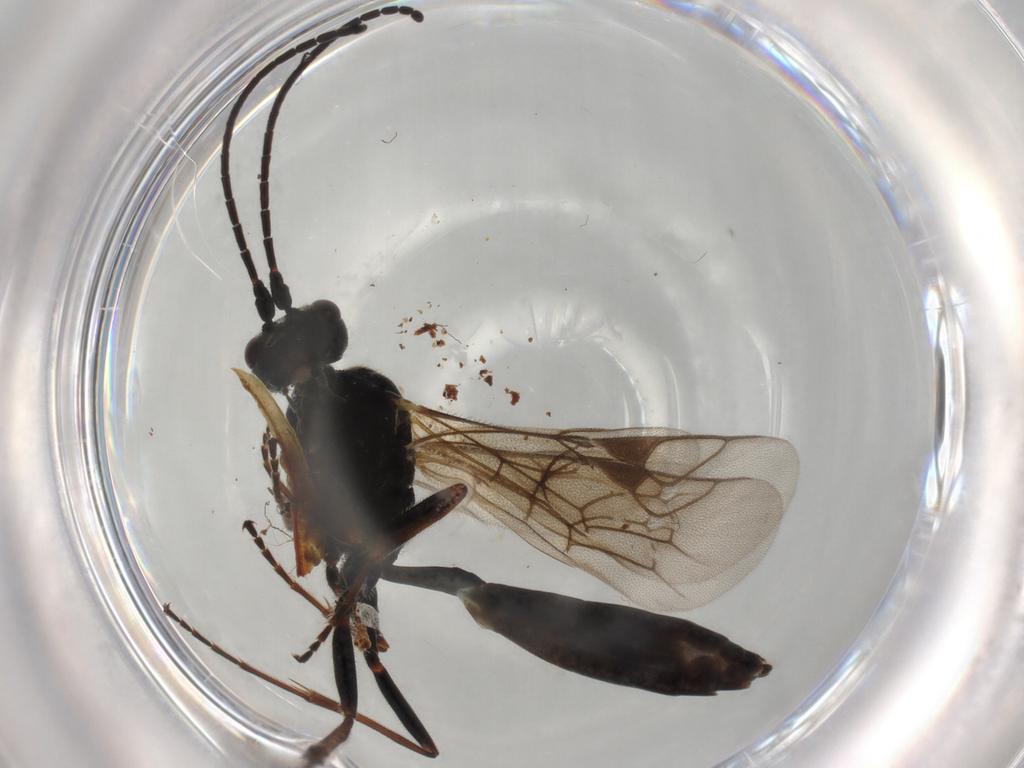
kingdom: Animalia
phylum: Arthropoda
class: Insecta
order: Hymenoptera
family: Scelionidae
